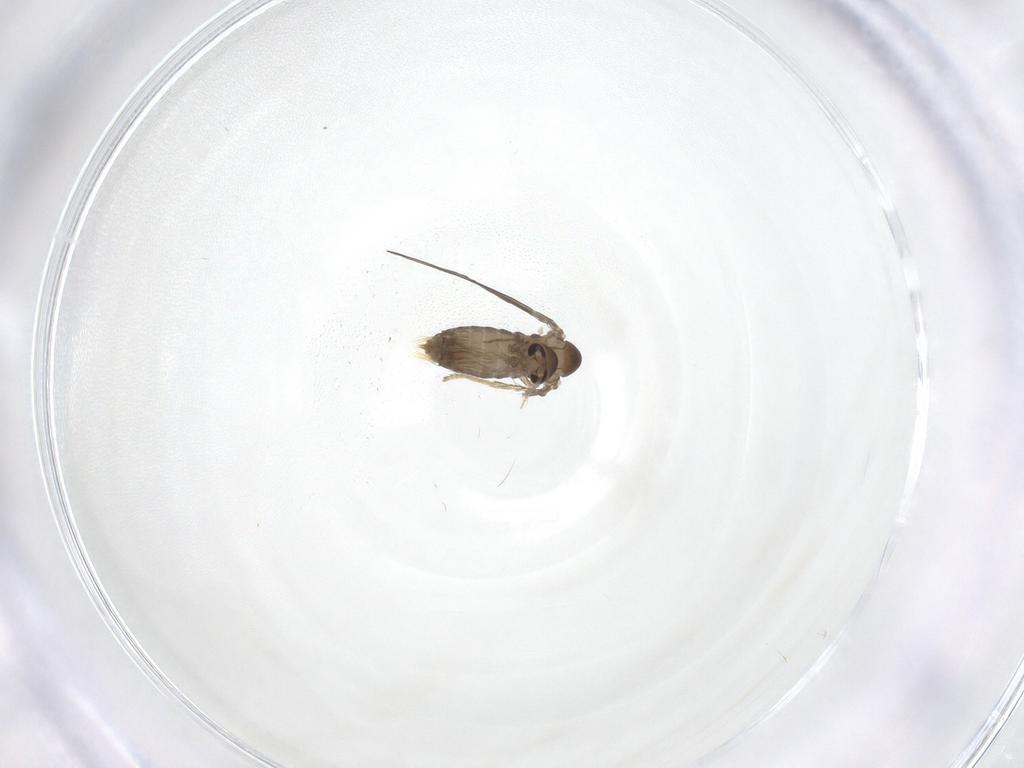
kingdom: Animalia
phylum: Arthropoda
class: Insecta
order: Diptera
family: Psychodidae
